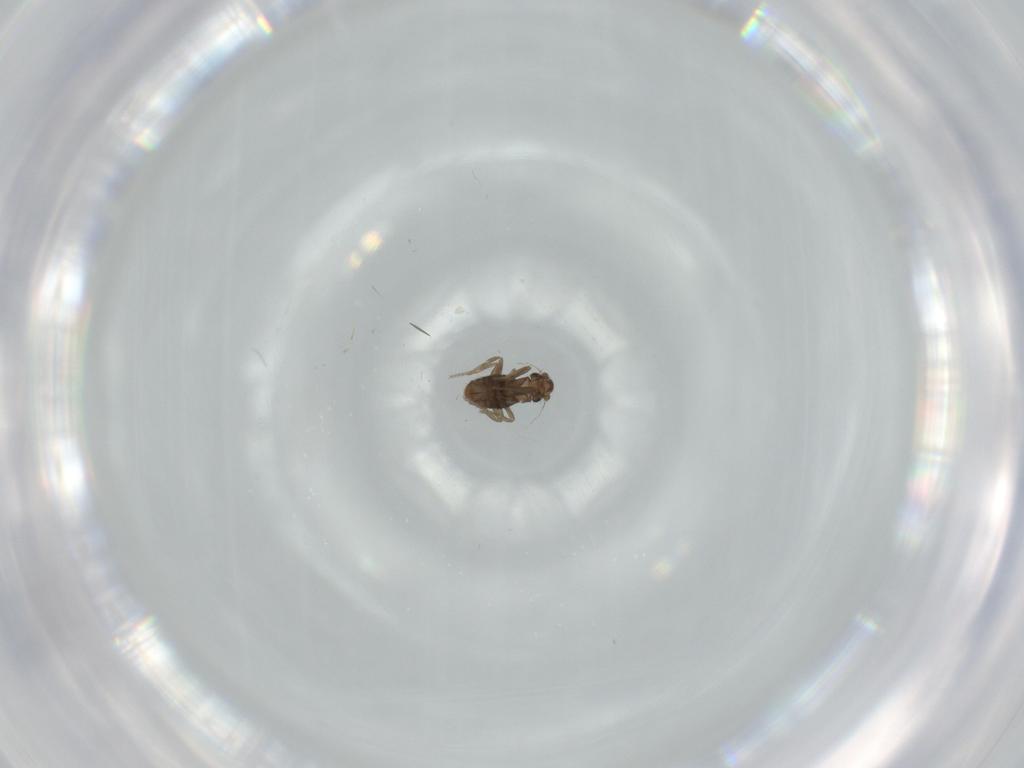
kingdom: Animalia
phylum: Arthropoda
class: Insecta
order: Diptera
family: Phoridae
